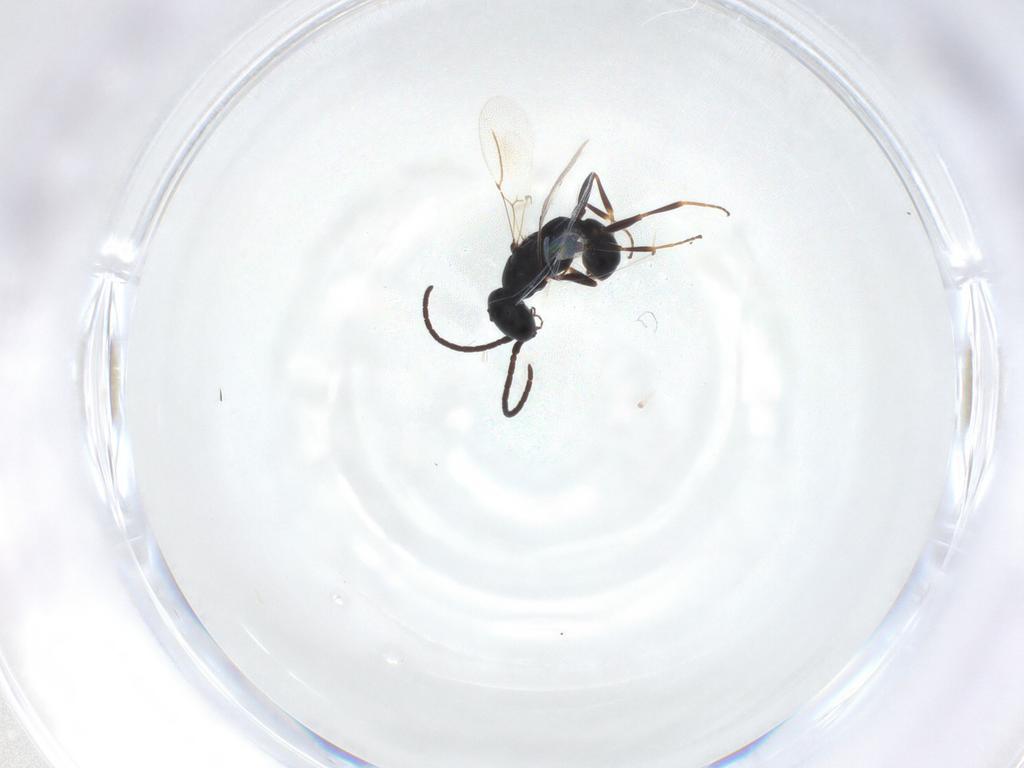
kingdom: Animalia
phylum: Arthropoda
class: Insecta
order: Hymenoptera
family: Bethylidae
